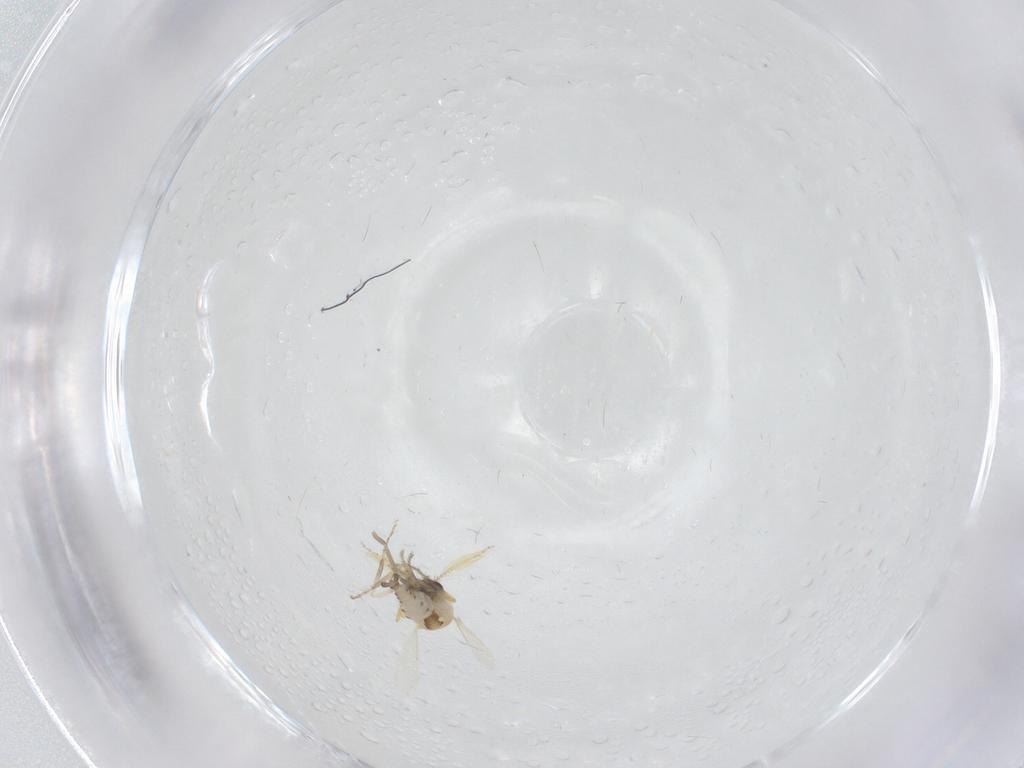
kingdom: Animalia
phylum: Arthropoda
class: Insecta
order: Diptera
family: Ceratopogonidae
